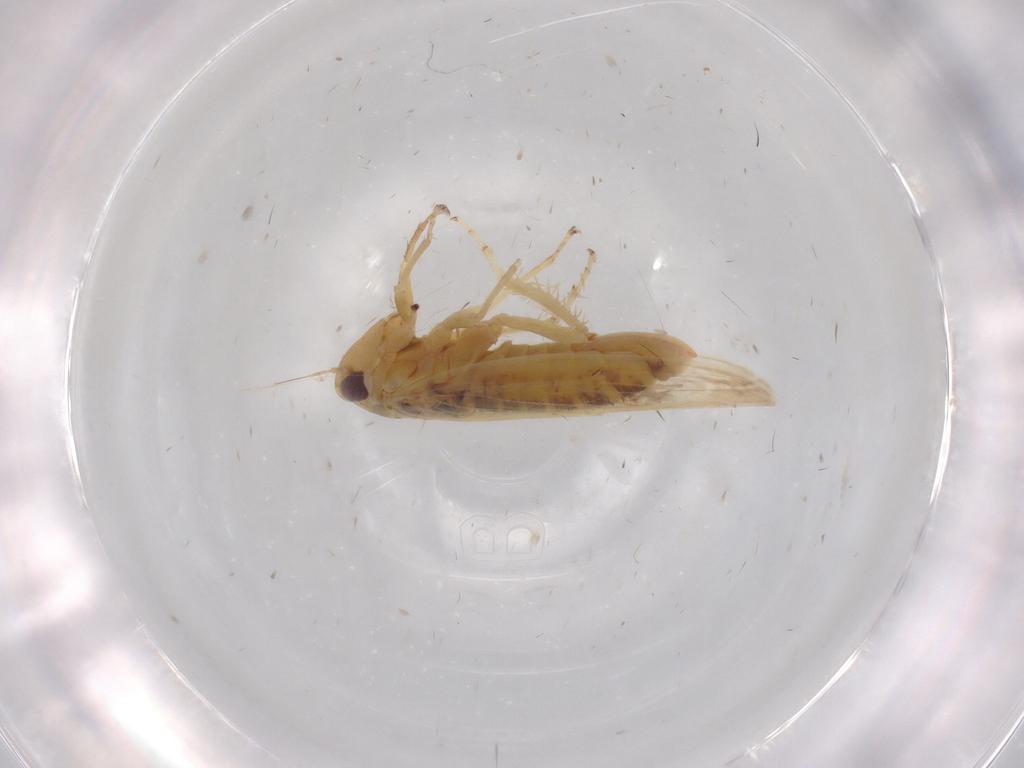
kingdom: Animalia
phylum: Arthropoda
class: Insecta
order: Hemiptera
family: Cicadellidae
